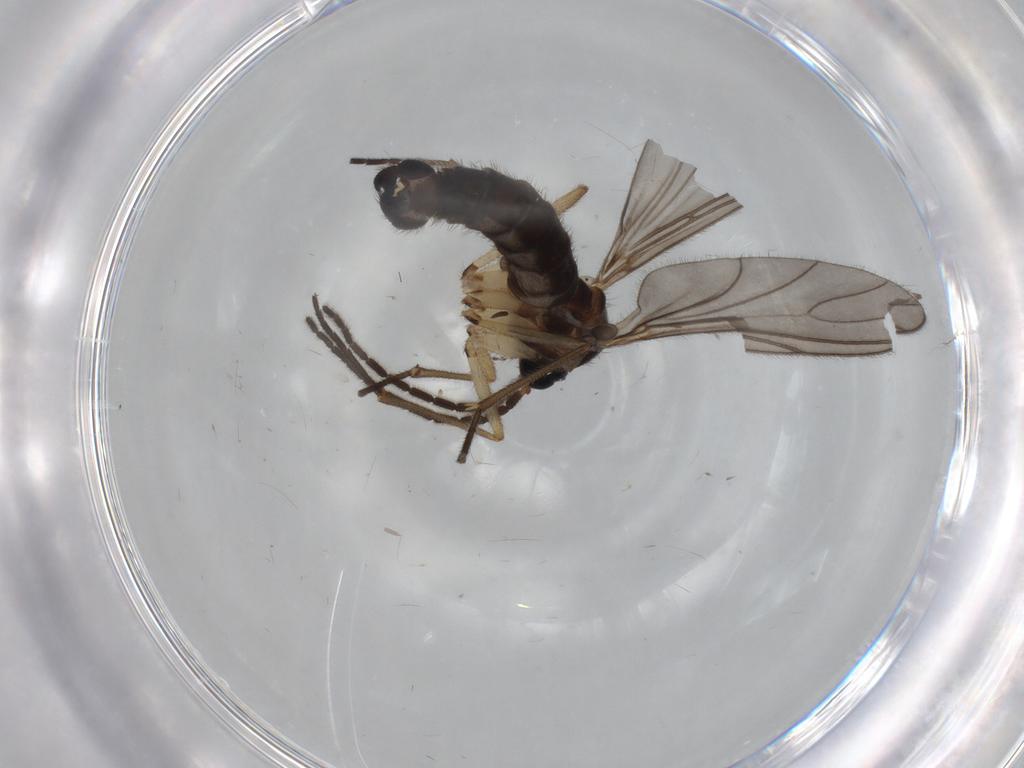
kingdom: Animalia
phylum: Arthropoda
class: Insecta
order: Diptera
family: Sciaridae
